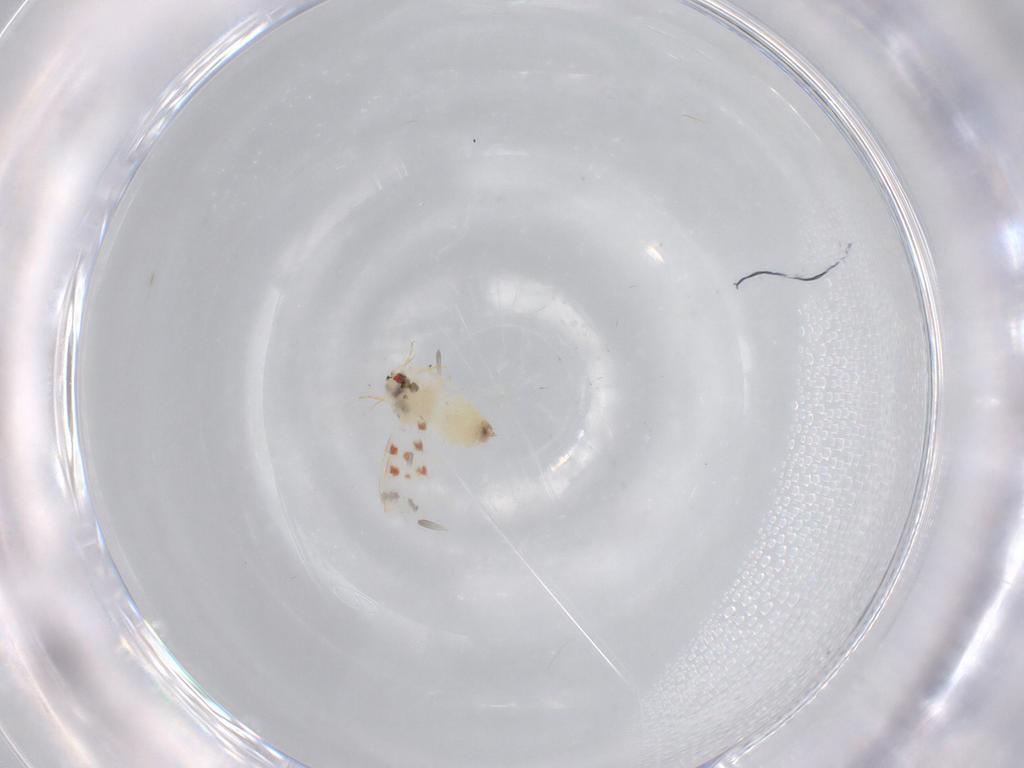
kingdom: Animalia
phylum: Arthropoda
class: Insecta
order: Hemiptera
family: Aleyrodidae
